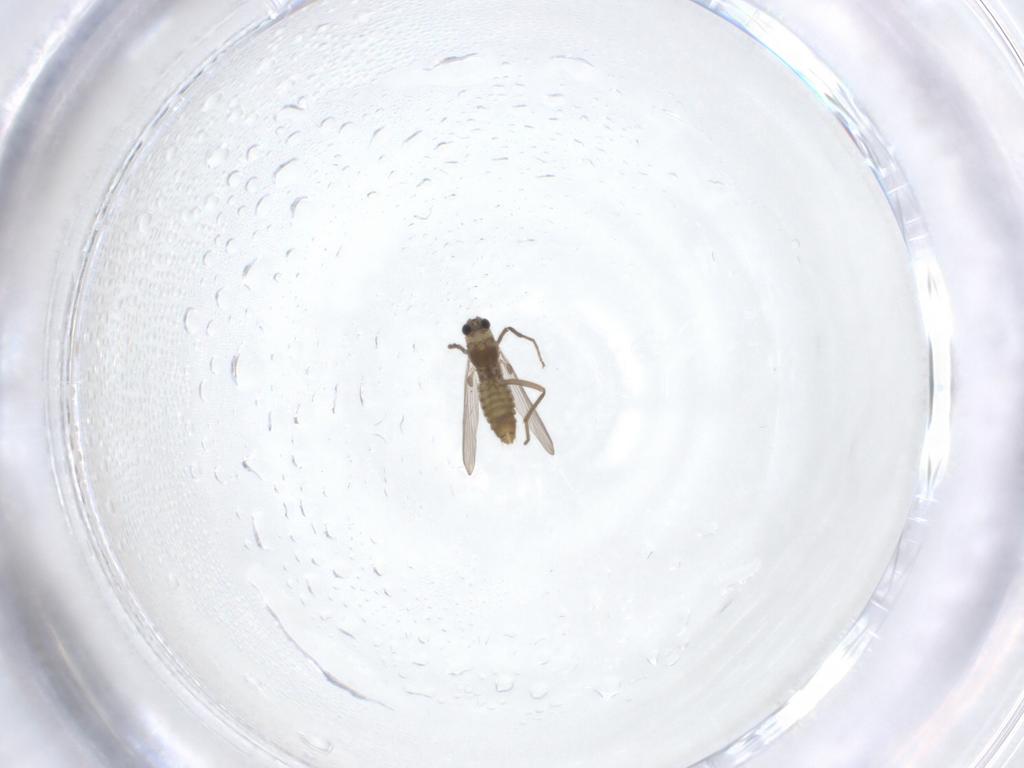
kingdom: Animalia
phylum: Arthropoda
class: Insecta
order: Diptera
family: Chironomidae
